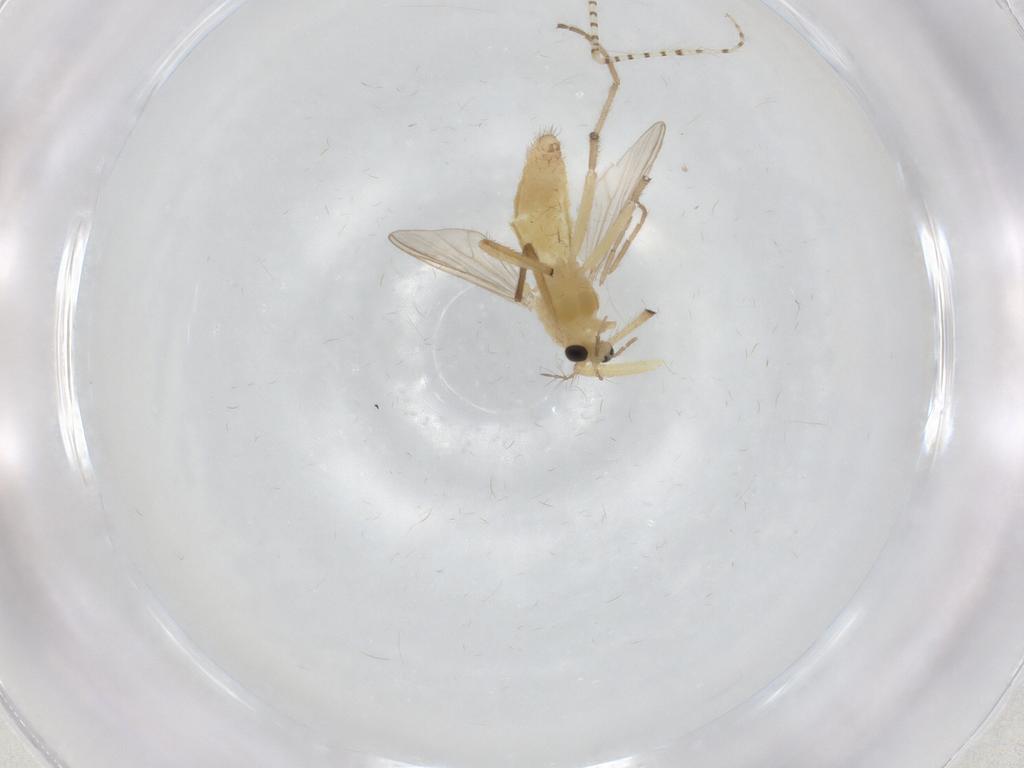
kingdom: Animalia
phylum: Arthropoda
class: Insecta
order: Diptera
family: Chironomidae
